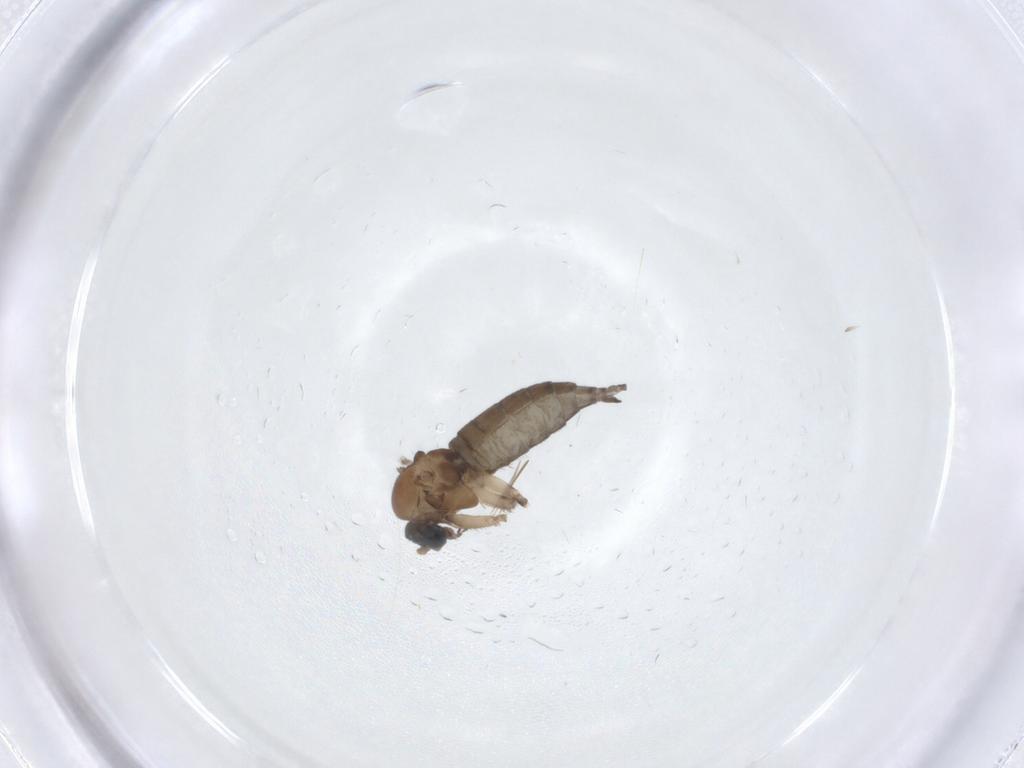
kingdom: Animalia
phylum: Arthropoda
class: Insecta
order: Diptera
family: Sciaridae
